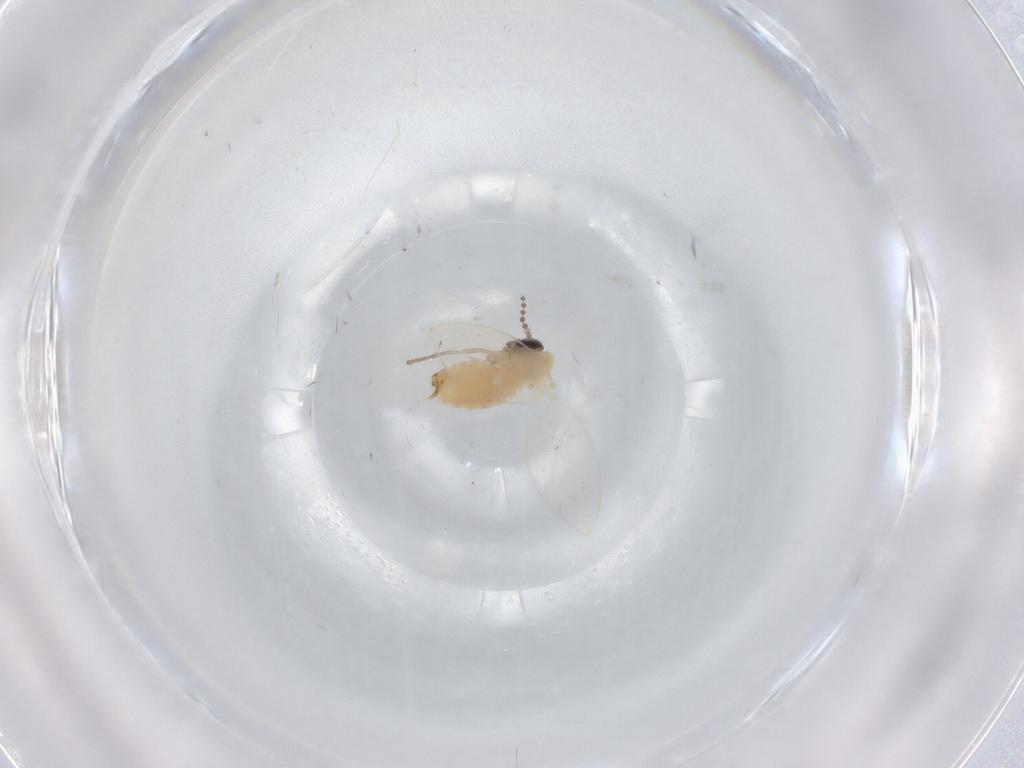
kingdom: Animalia
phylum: Arthropoda
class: Insecta
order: Diptera
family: Psychodidae
